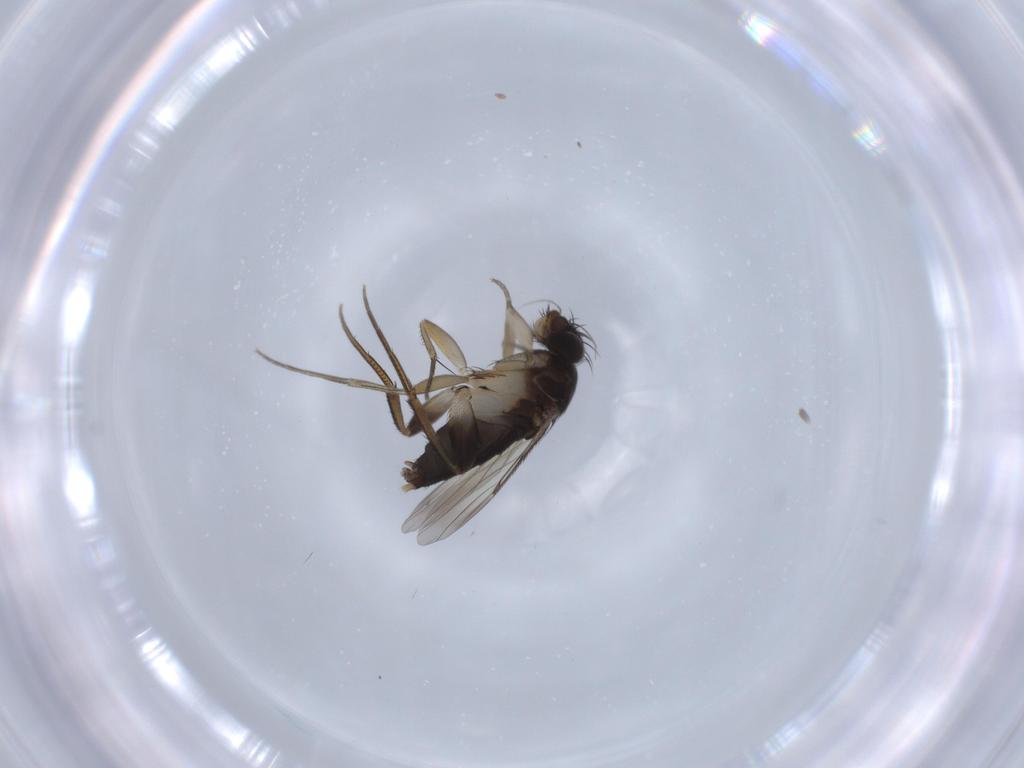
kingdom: Animalia
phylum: Arthropoda
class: Insecta
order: Diptera
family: Phoridae
